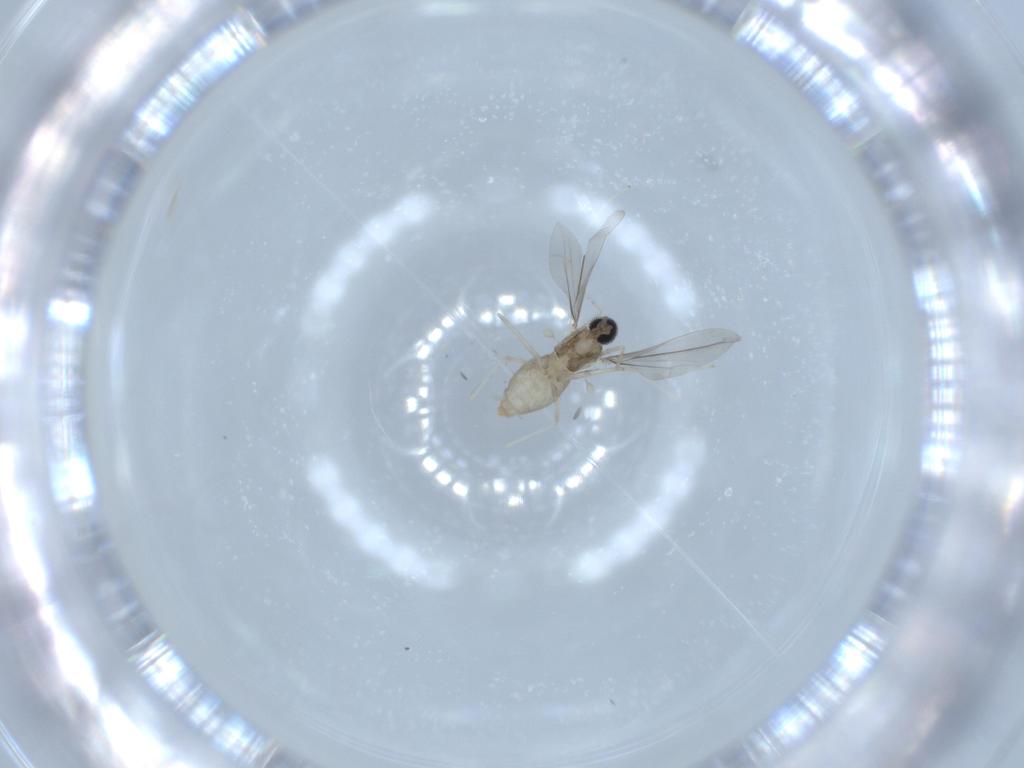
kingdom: Animalia
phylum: Arthropoda
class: Insecta
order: Diptera
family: Cecidomyiidae
